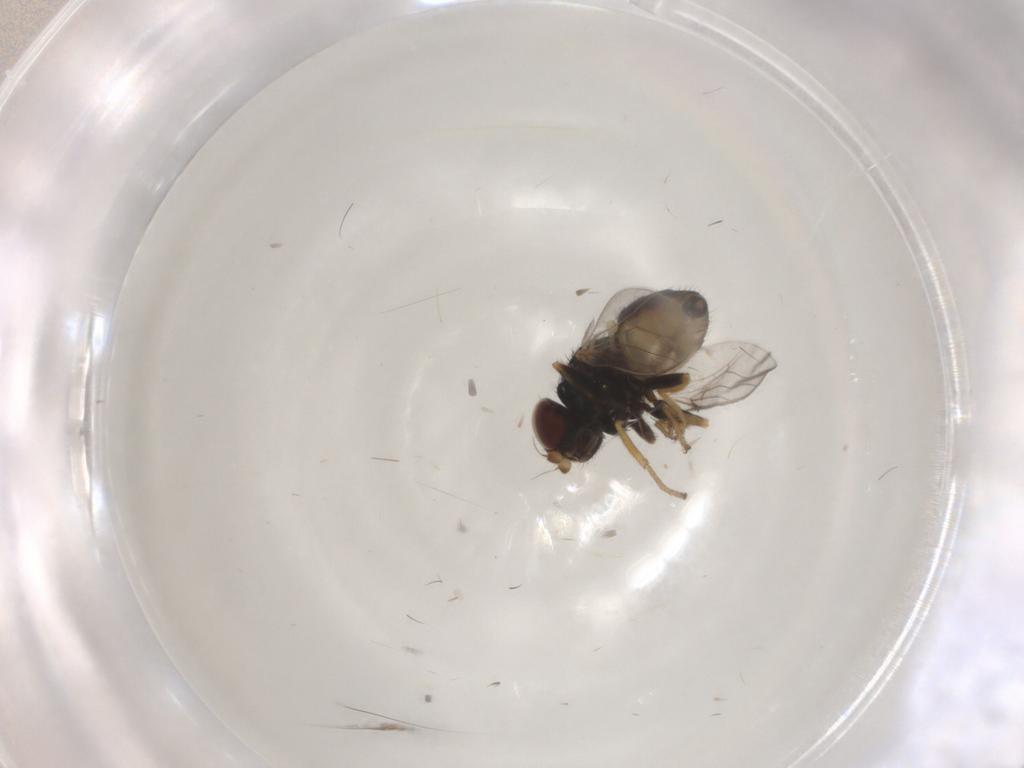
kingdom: Animalia
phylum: Arthropoda
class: Insecta
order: Diptera
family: Chloropidae
